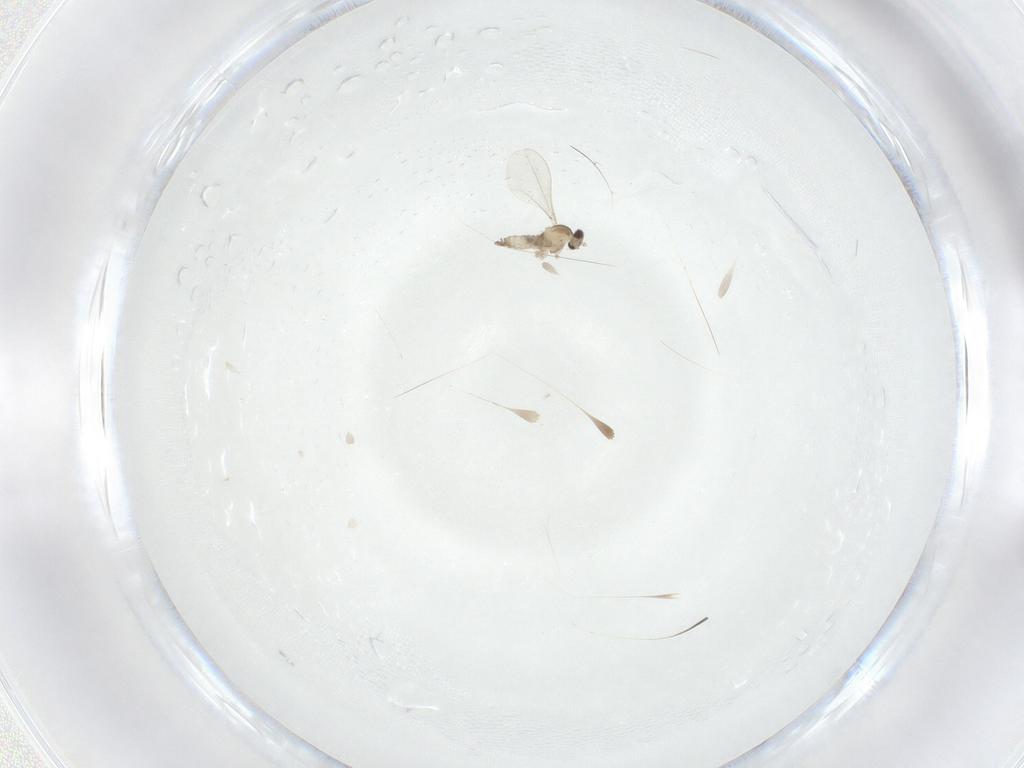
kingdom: Animalia
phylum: Arthropoda
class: Insecta
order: Diptera
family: Cecidomyiidae
